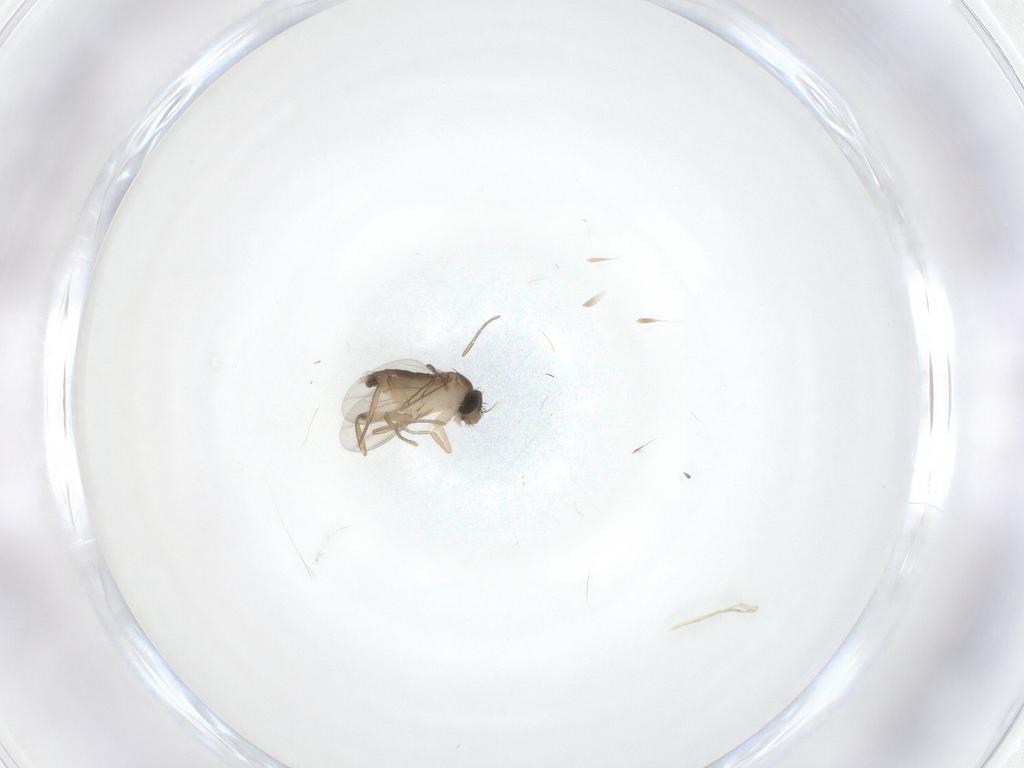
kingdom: Animalia
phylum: Arthropoda
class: Insecta
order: Diptera
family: Phoridae
